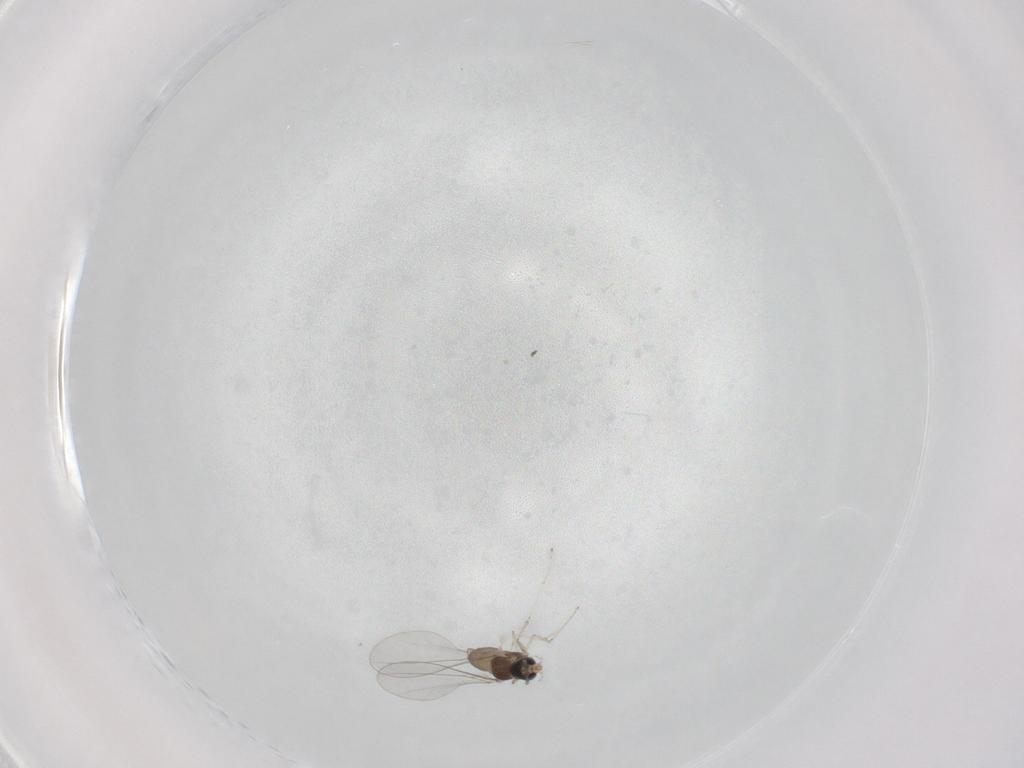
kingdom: Animalia
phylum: Arthropoda
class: Insecta
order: Diptera
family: Cecidomyiidae
